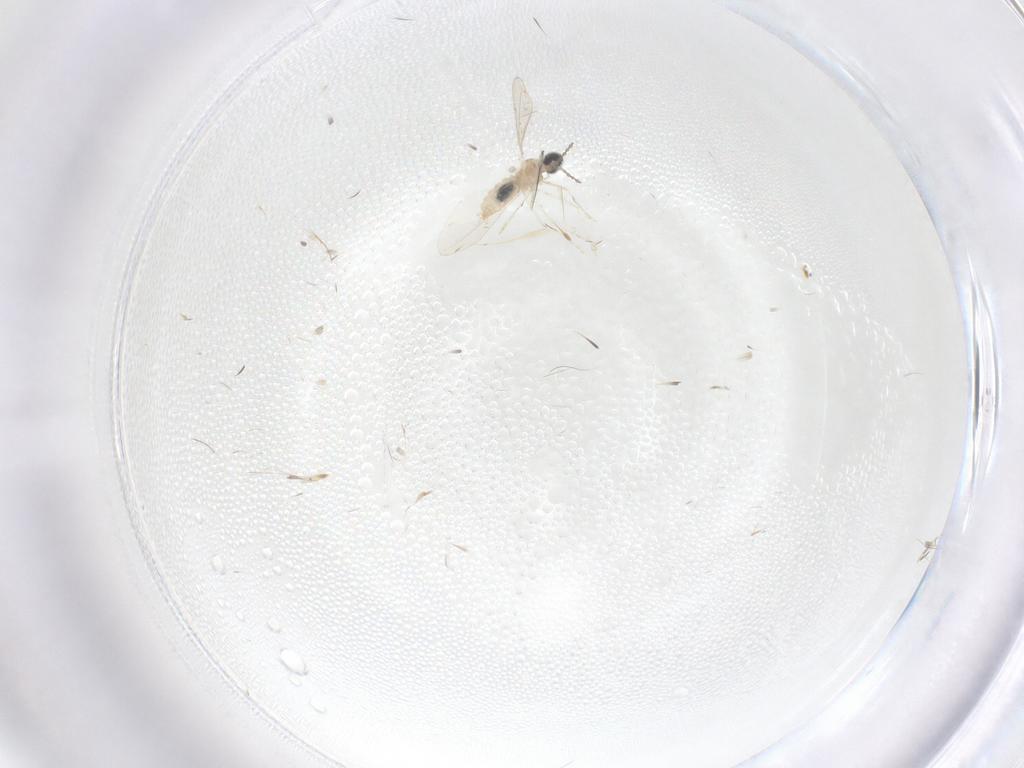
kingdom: Animalia
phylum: Arthropoda
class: Insecta
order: Diptera
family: Cecidomyiidae
